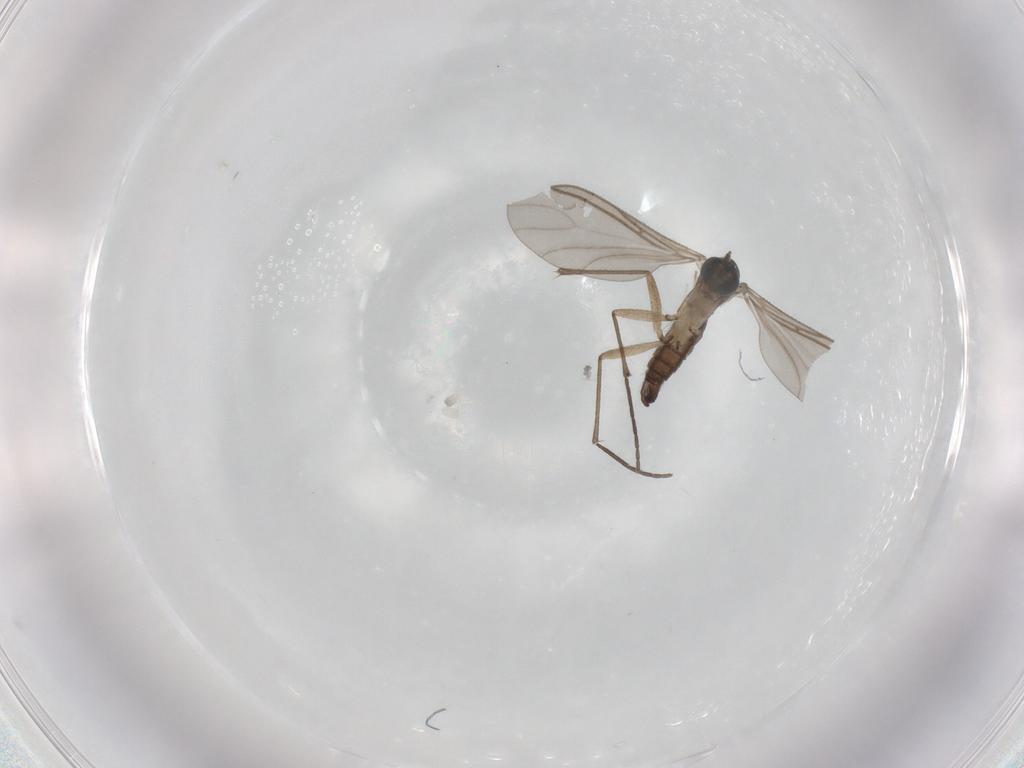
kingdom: Animalia
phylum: Arthropoda
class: Insecta
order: Diptera
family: Sciaridae
